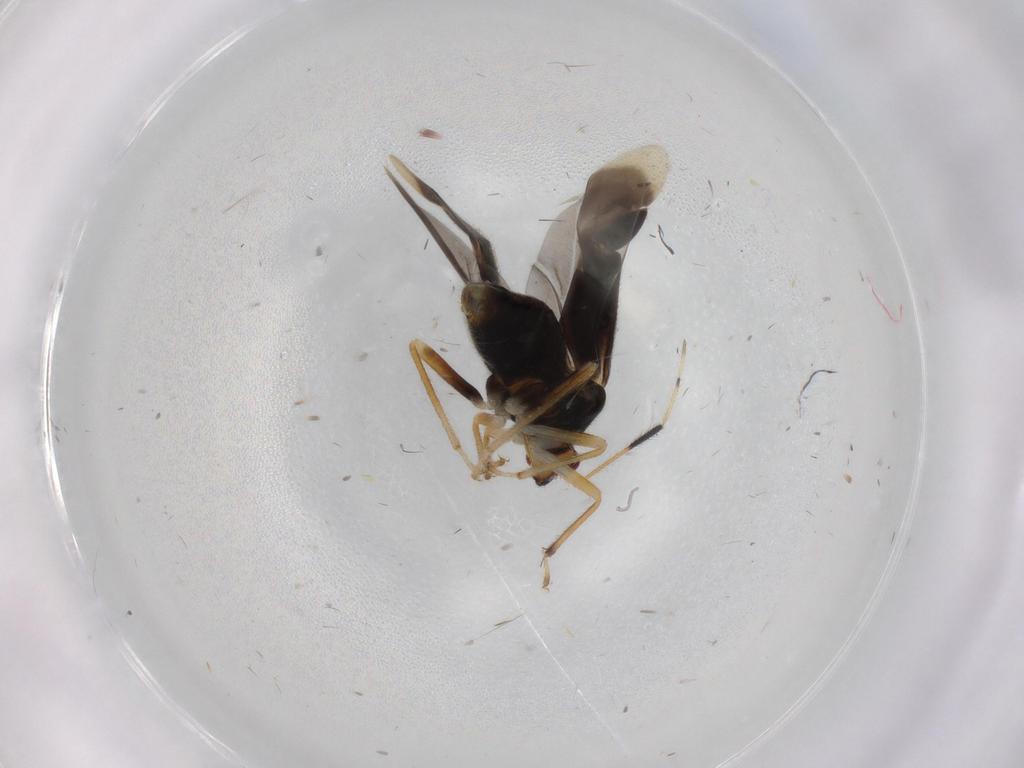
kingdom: Animalia
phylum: Arthropoda
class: Insecta
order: Hemiptera
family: Miridae
